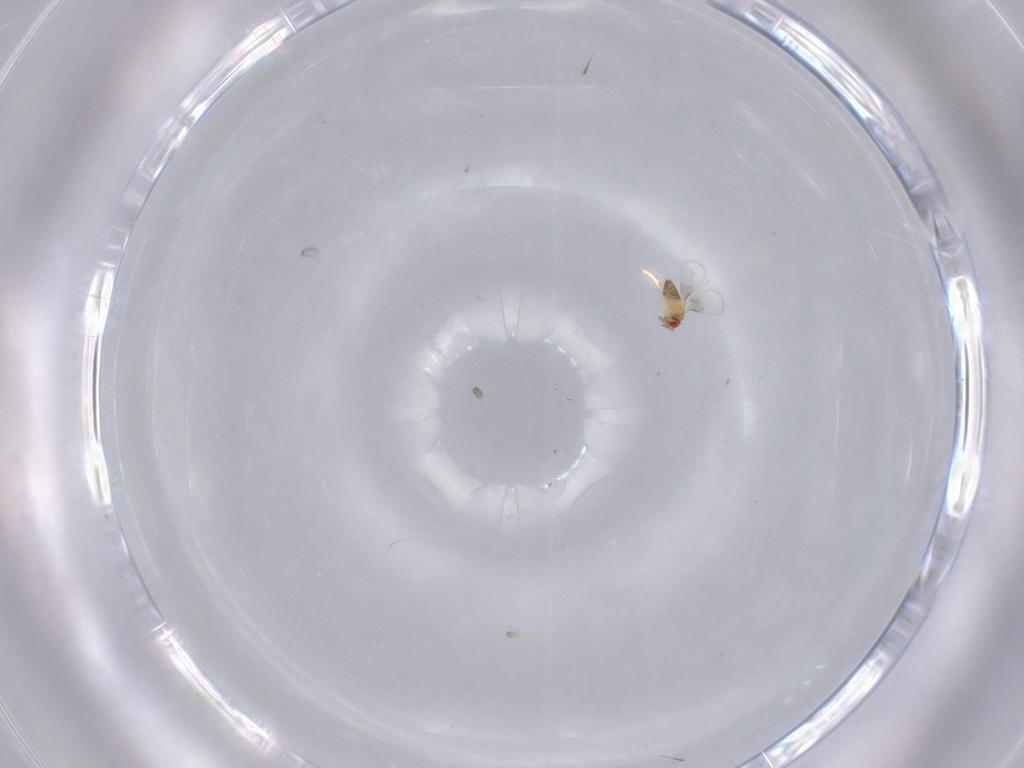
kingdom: Animalia
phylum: Arthropoda
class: Insecta
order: Hymenoptera
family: Trichogrammatidae
